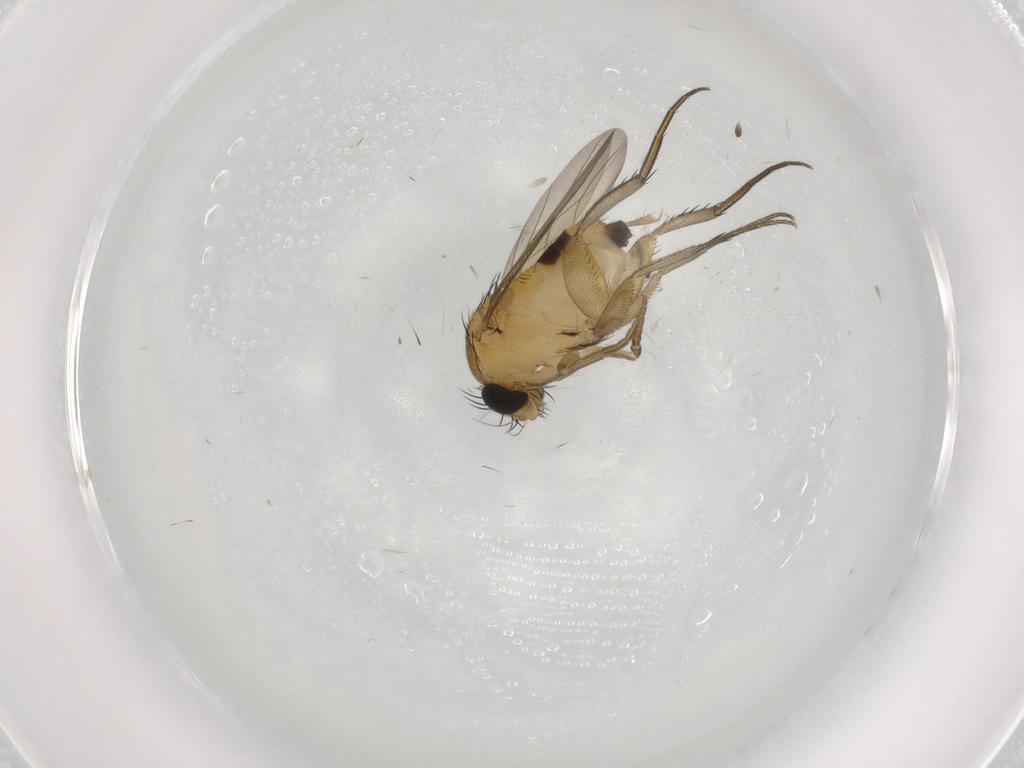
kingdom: Animalia
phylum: Arthropoda
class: Insecta
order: Diptera
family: Phoridae
